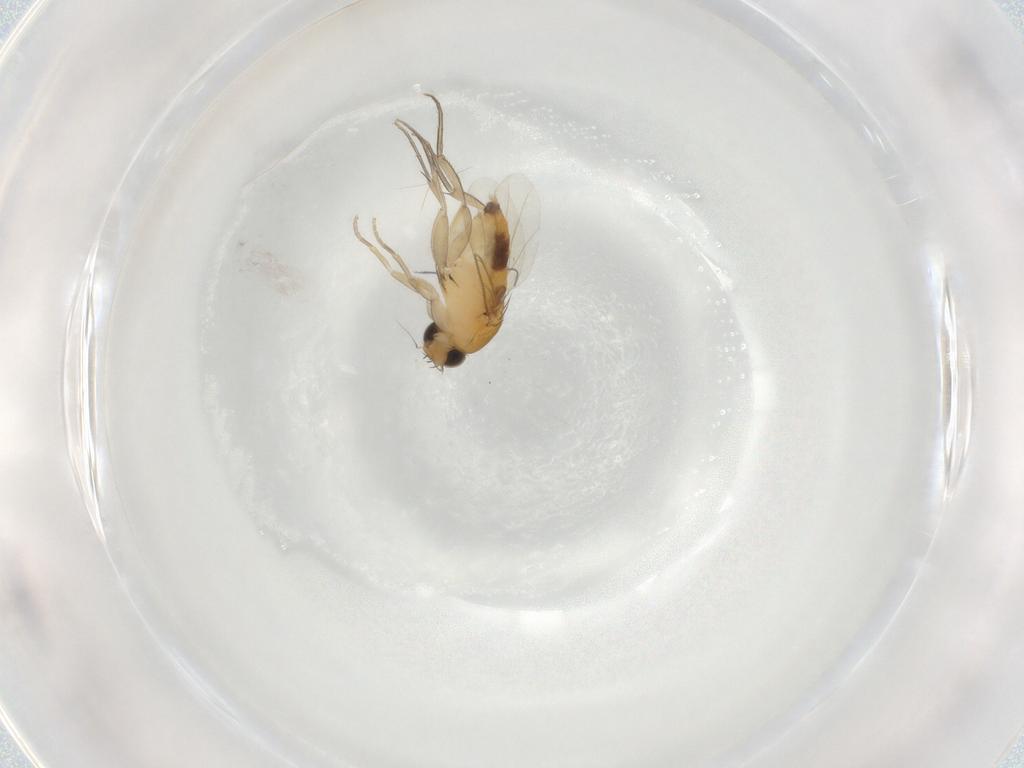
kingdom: Animalia
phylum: Arthropoda
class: Insecta
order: Diptera
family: Phoridae
